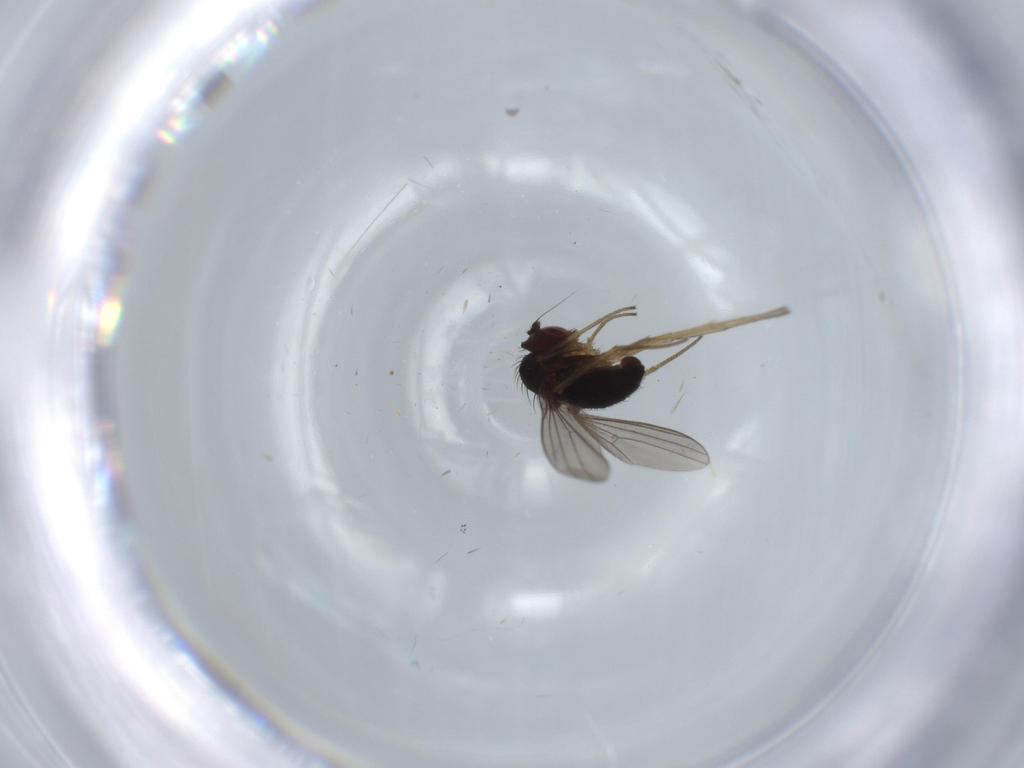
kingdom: Animalia
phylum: Arthropoda
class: Insecta
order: Diptera
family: Dolichopodidae
